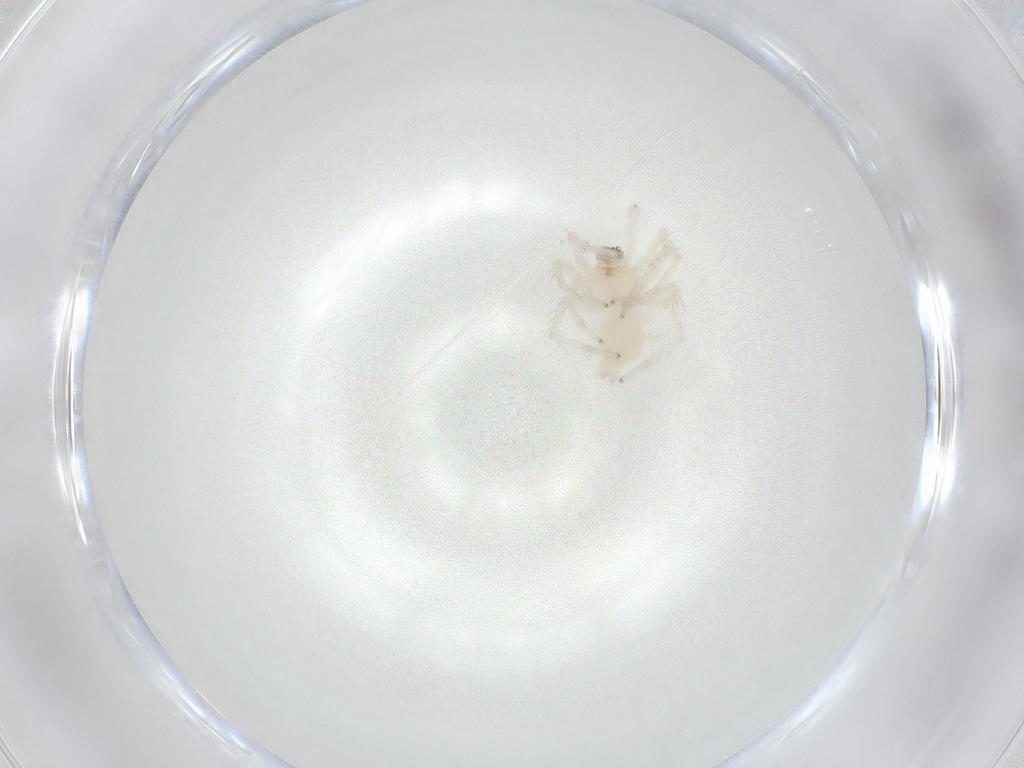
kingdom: Animalia
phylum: Arthropoda
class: Arachnida
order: Araneae
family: Anyphaenidae
